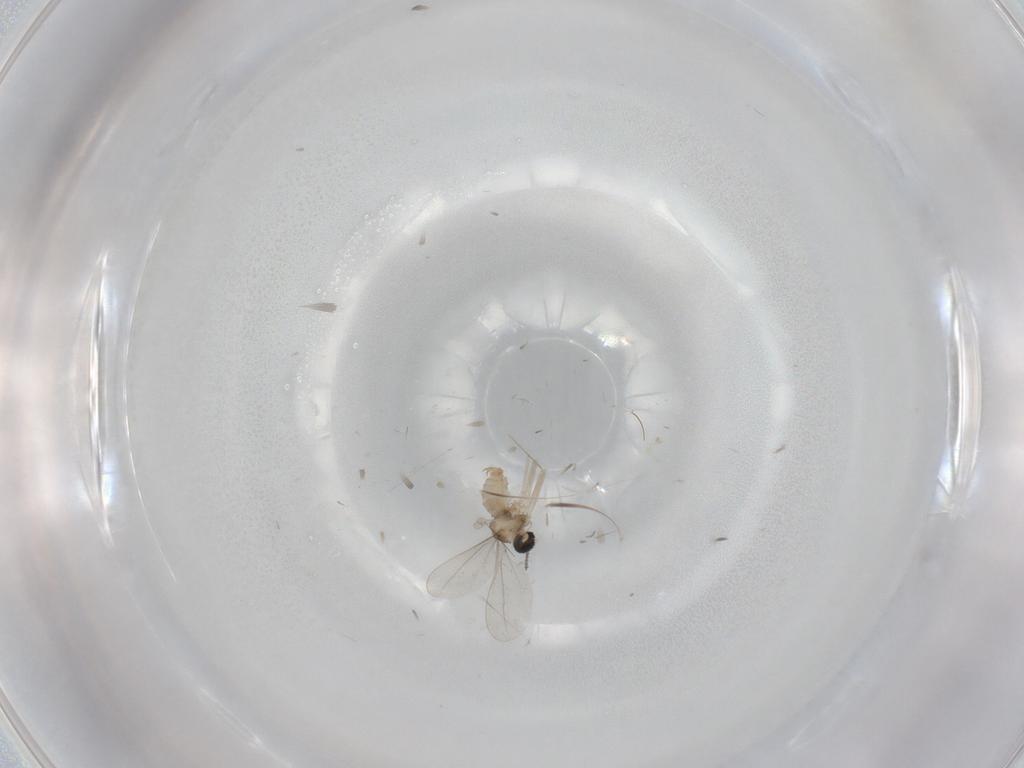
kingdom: Animalia
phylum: Arthropoda
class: Insecta
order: Diptera
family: Cecidomyiidae
